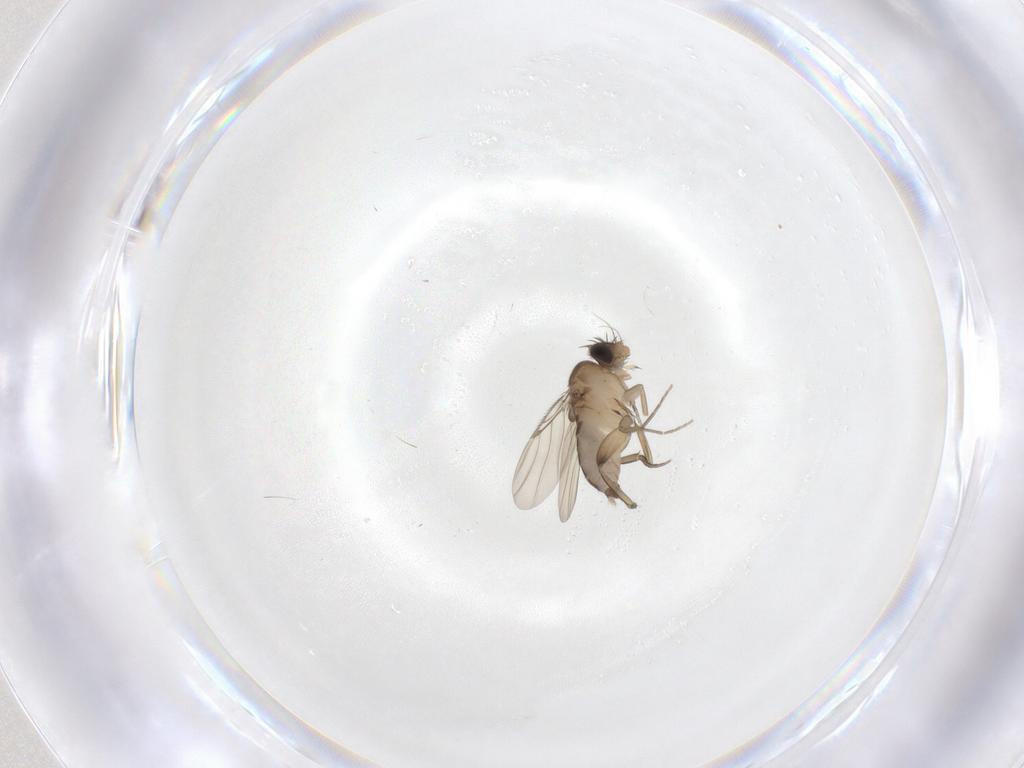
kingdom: Animalia
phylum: Arthropoda
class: Insecta
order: Diptera
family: Phoridae
